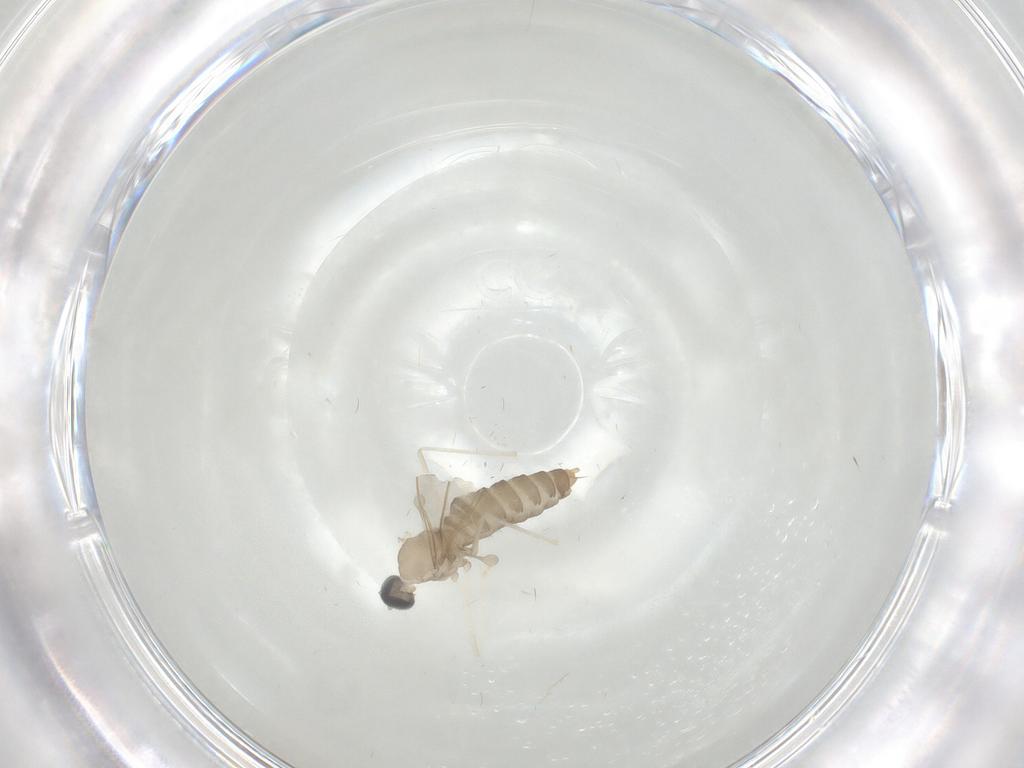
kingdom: Animalia
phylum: Arthropoda
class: Insecta
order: Diptera
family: Cecidomyiidae
